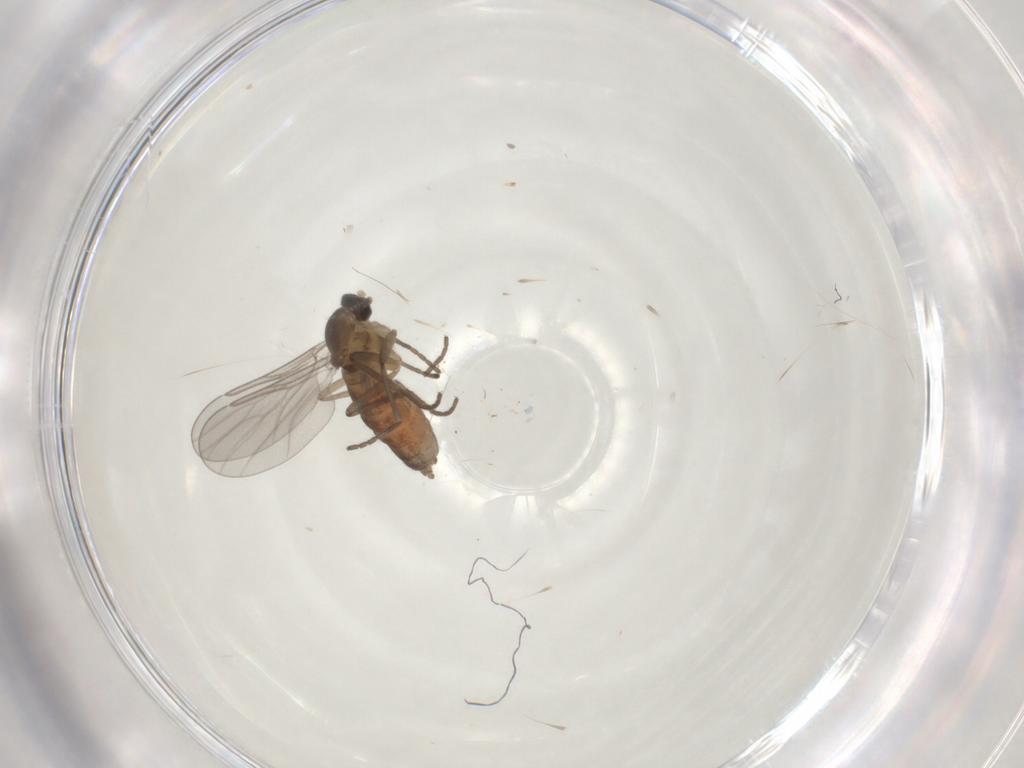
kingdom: Animalia
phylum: Arthropoda
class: Insecta
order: Diptera
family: Cecidomyiidae
